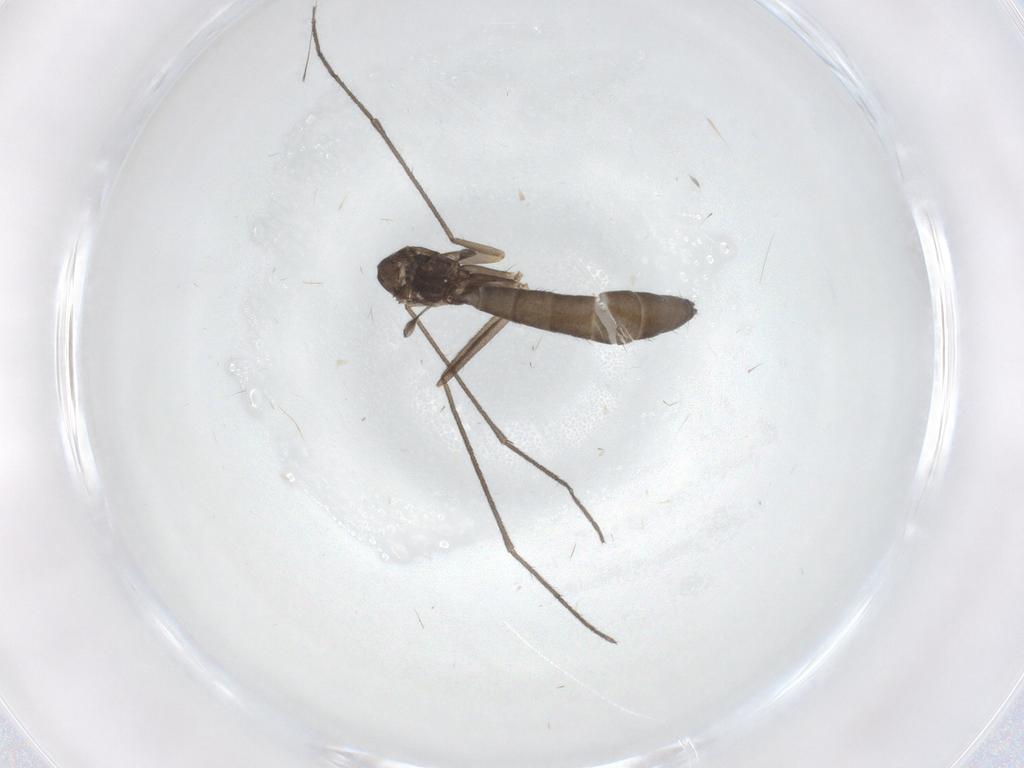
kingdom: Animalia
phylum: Arthropoda
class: Insecta
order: Diptera
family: Keroplatidae
